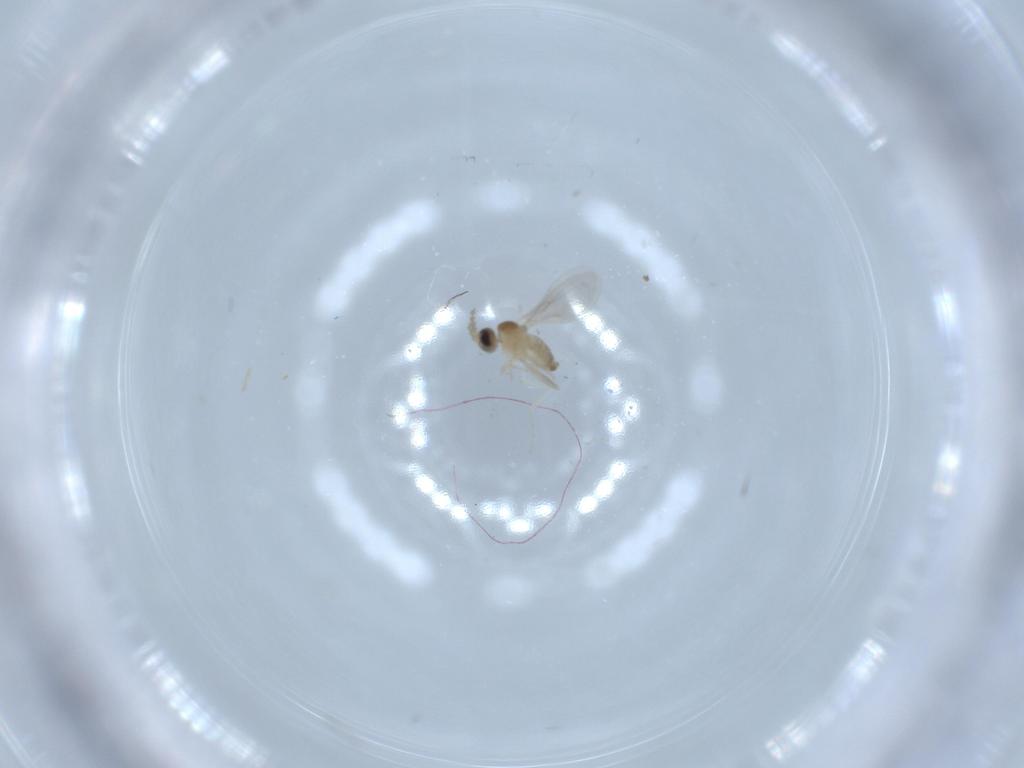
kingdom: Animalia
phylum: Arthropoda
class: Insecta
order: Diptera
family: Cecidomyiidae
